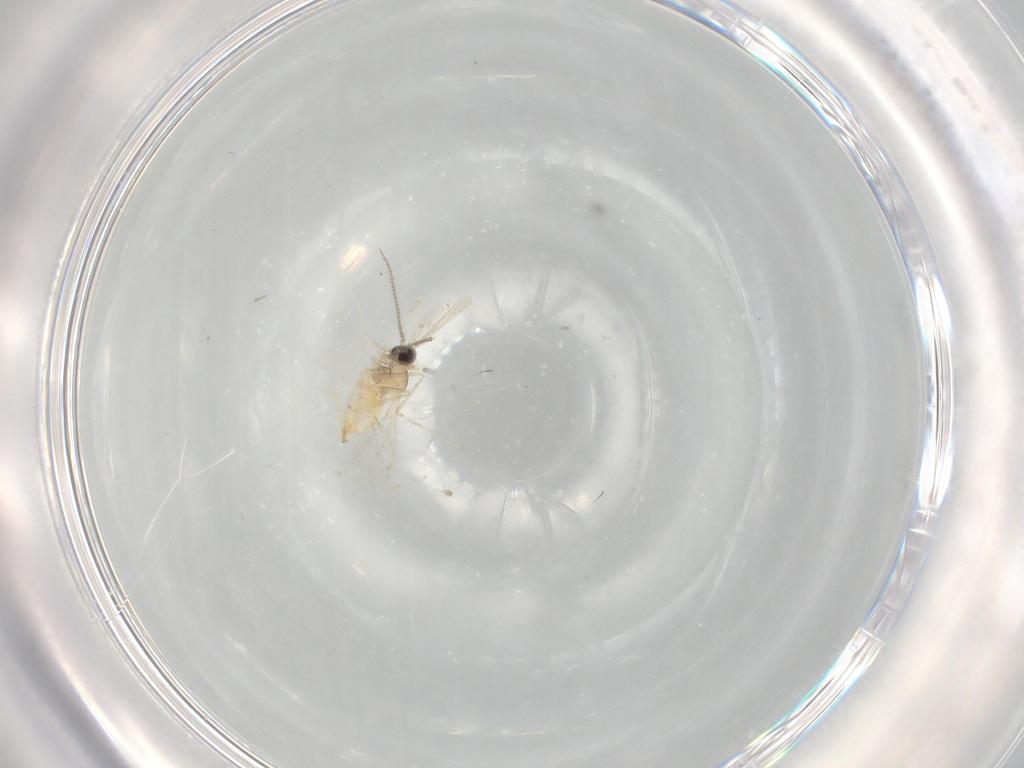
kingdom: Animalia
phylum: Arthropoda
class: Insecta
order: Diptera
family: Cecidomyiidae
